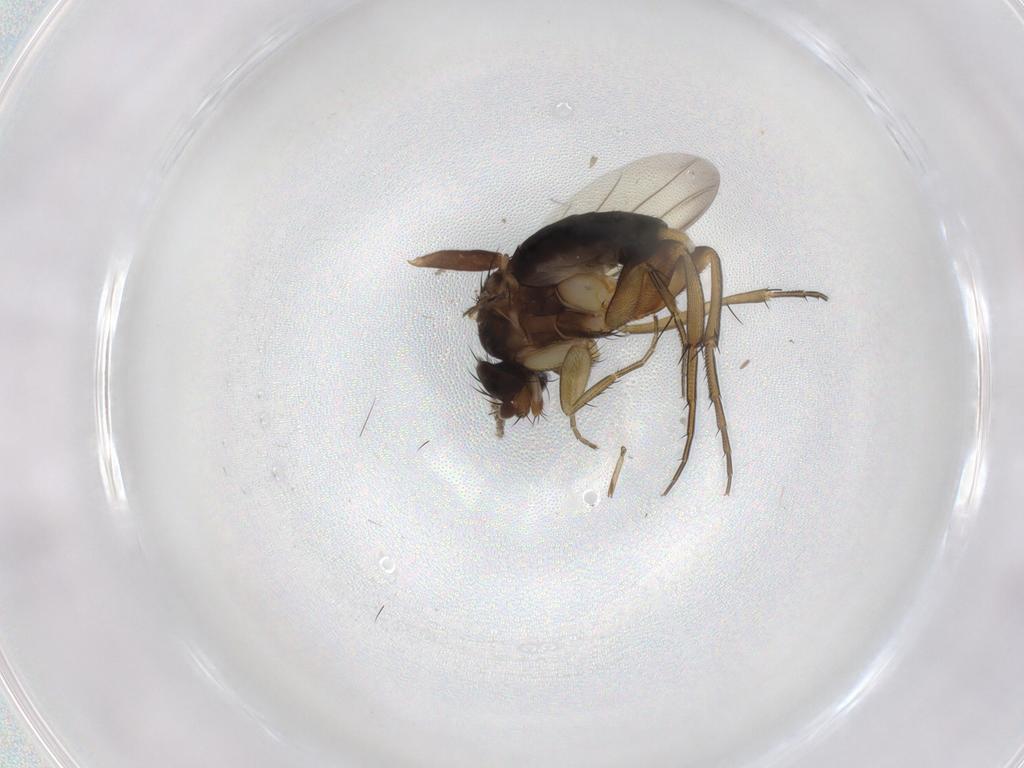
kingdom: Animalia
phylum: Arthropoda
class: Insecta
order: Diptera
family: Phoridae
